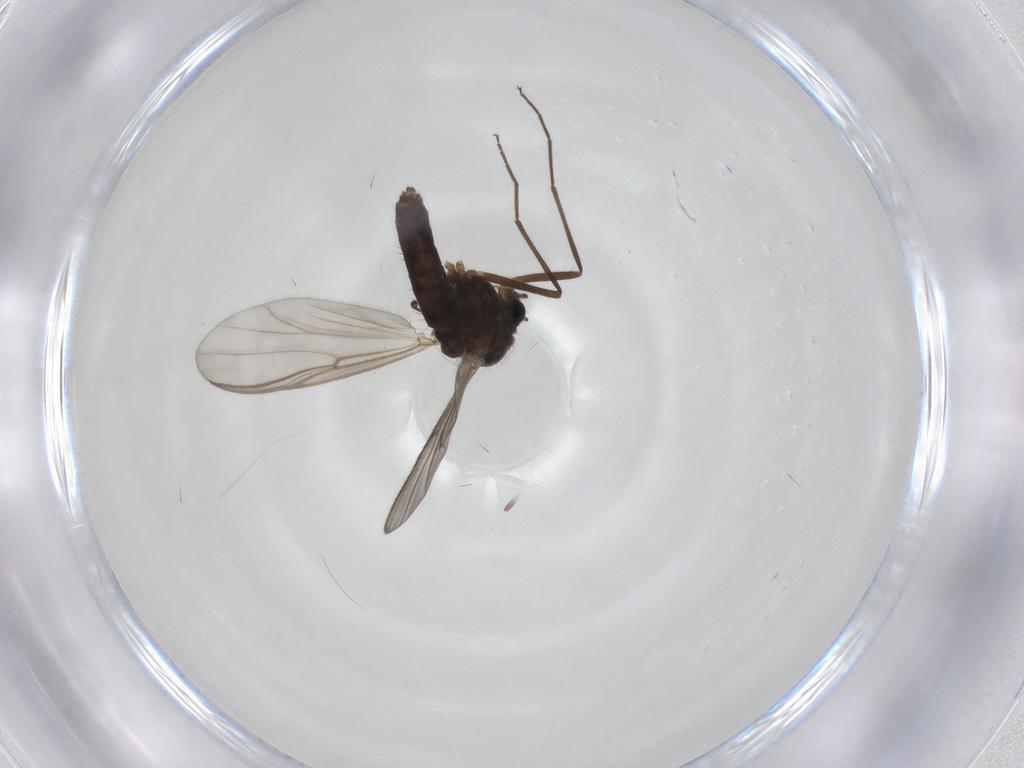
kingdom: Animalia
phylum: Arthropoda
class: Insecta
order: Diptera
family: Chironomidae
